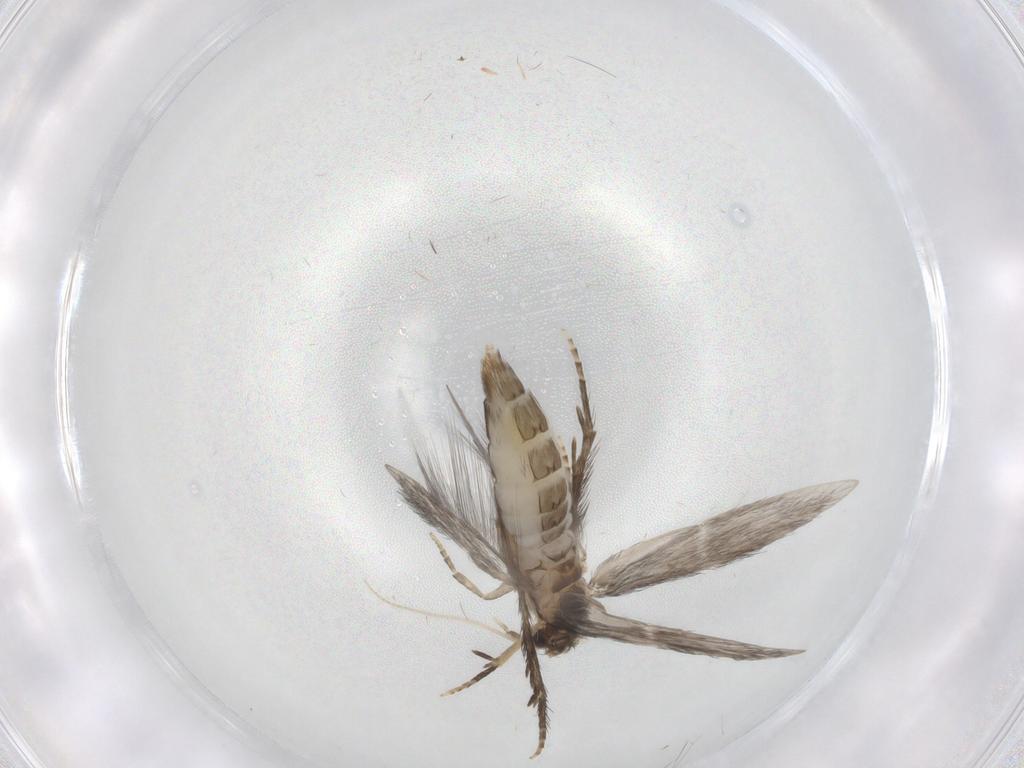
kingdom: Animalia
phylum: Arthropoda
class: Insecta
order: Trichoptera
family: Hydroptilidae
